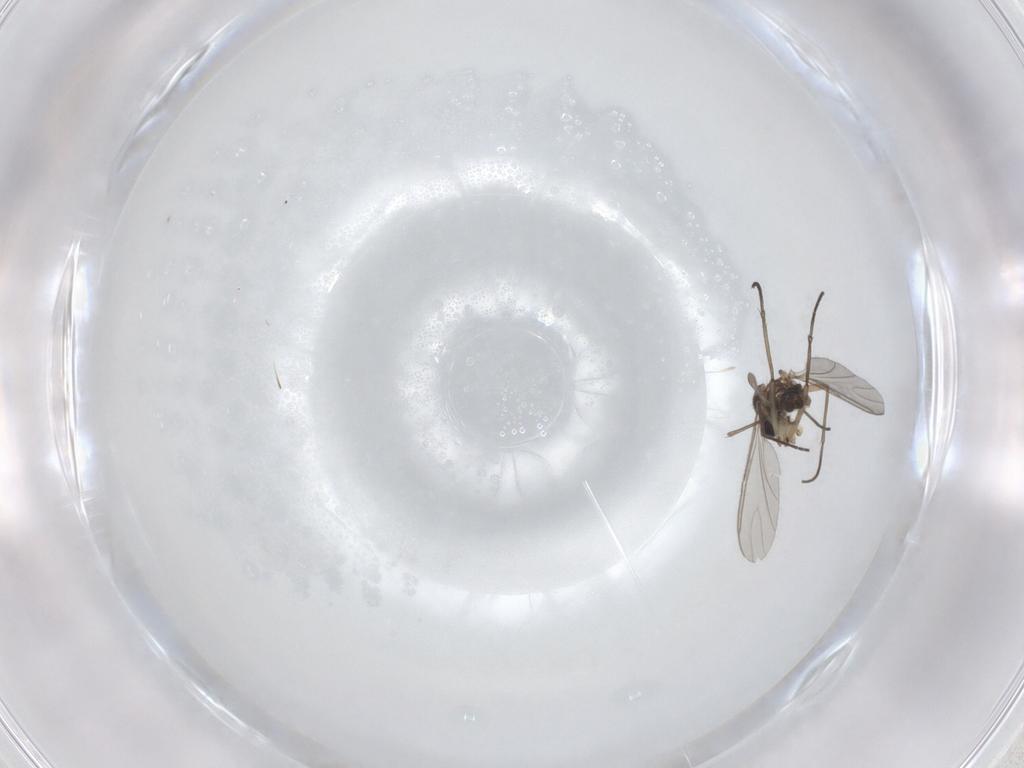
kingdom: Animalia
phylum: Arthropoda
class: Insecta
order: Diptera
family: Sciaridae
